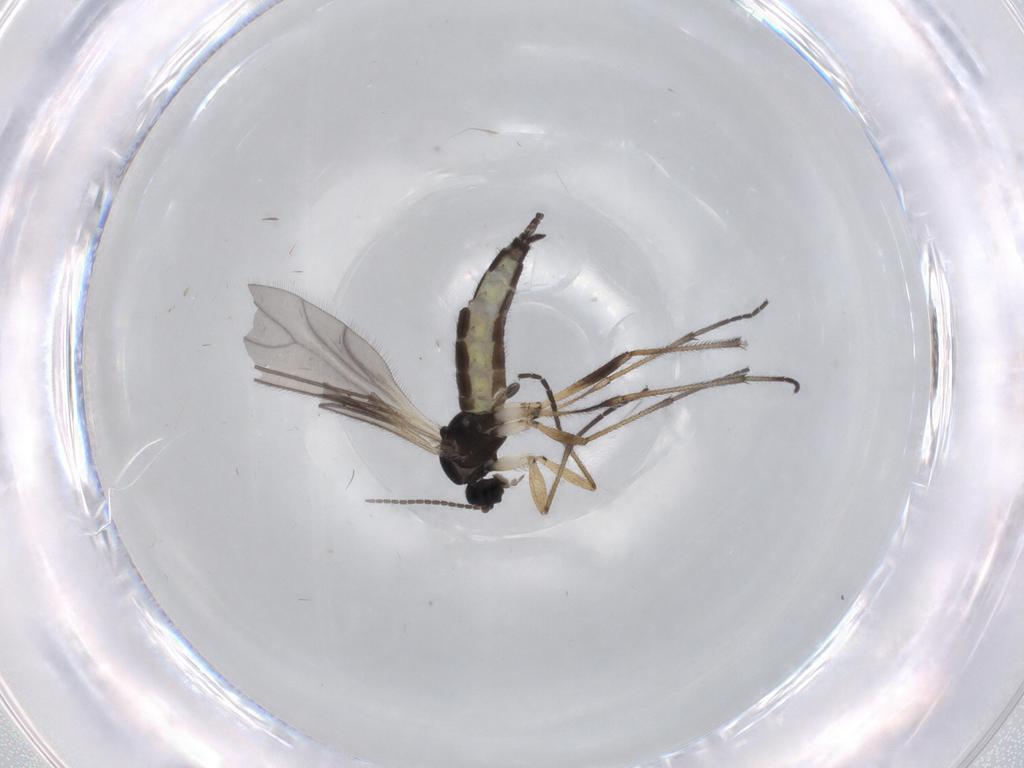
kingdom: Animalia
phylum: Arthropoda
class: Insecta
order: Diptera
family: Sciaridae
